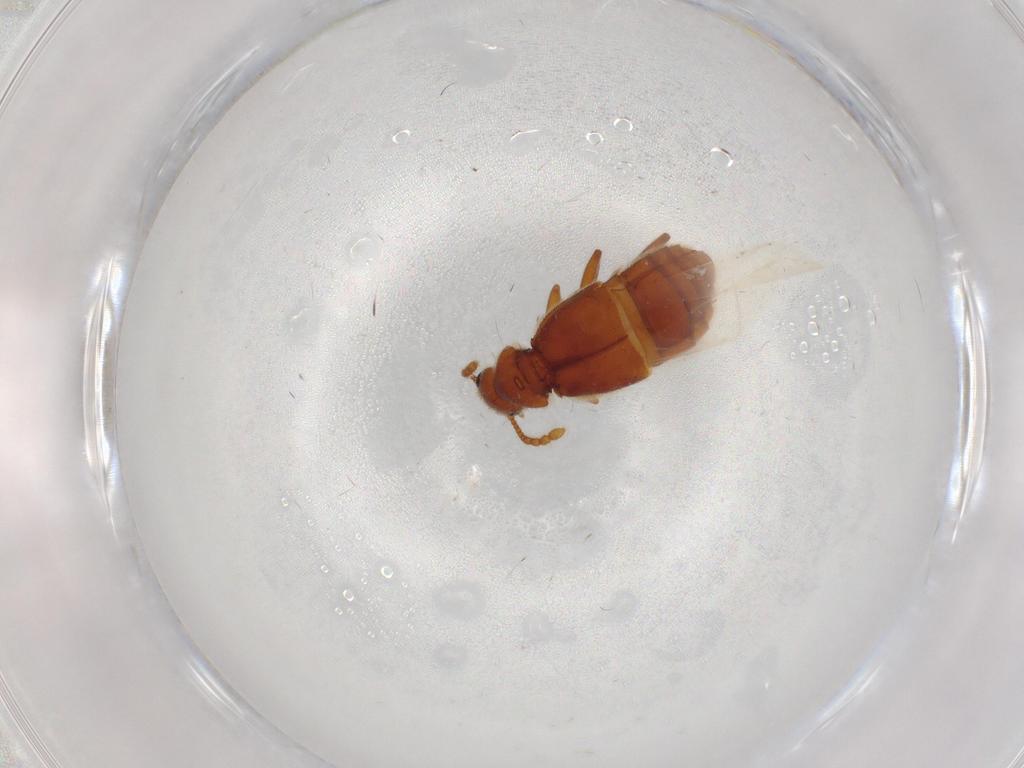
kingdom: Animalia
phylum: Arthropoda
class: Insecta
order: Coleoptera
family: Staphylinidae
